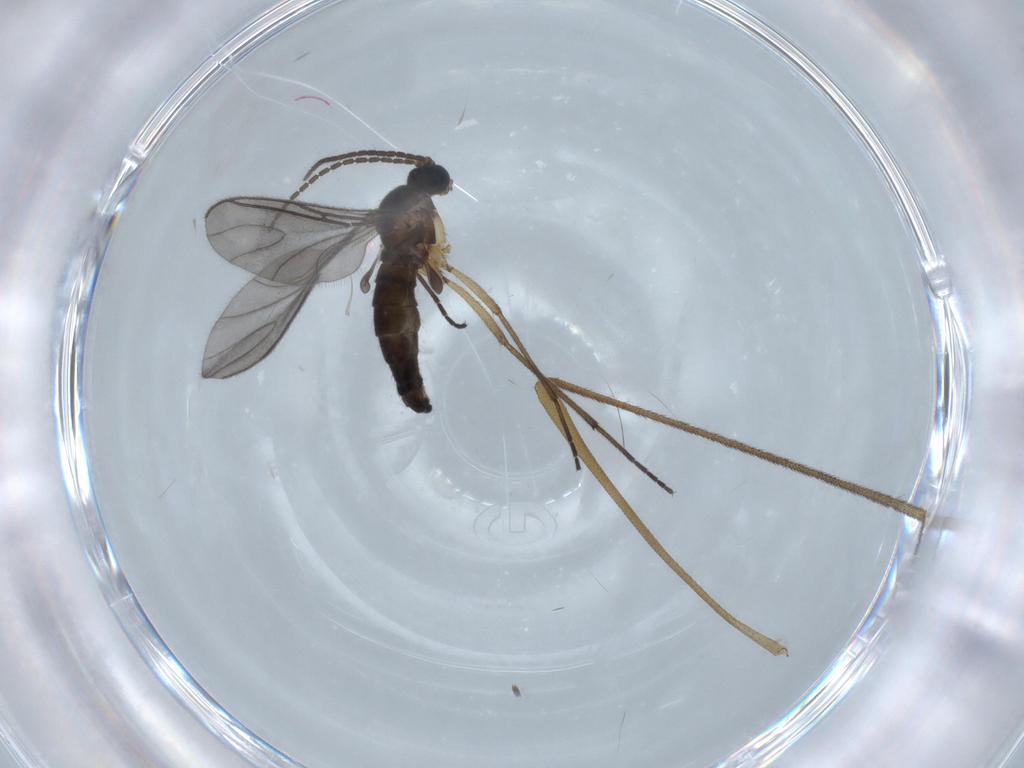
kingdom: Animalia
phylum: Arthropoda
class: Insecta
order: Diptera
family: Sciaridae
